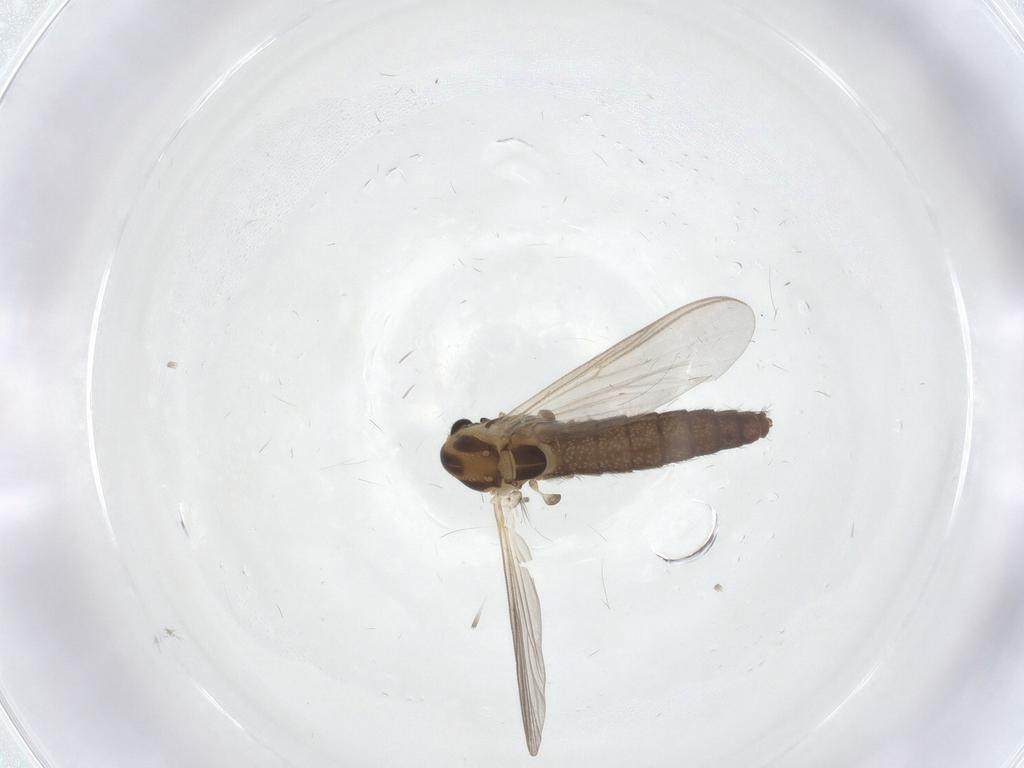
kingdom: Animalia
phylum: Arthropoda
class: Insecta
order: Diptera
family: Chironomidae
